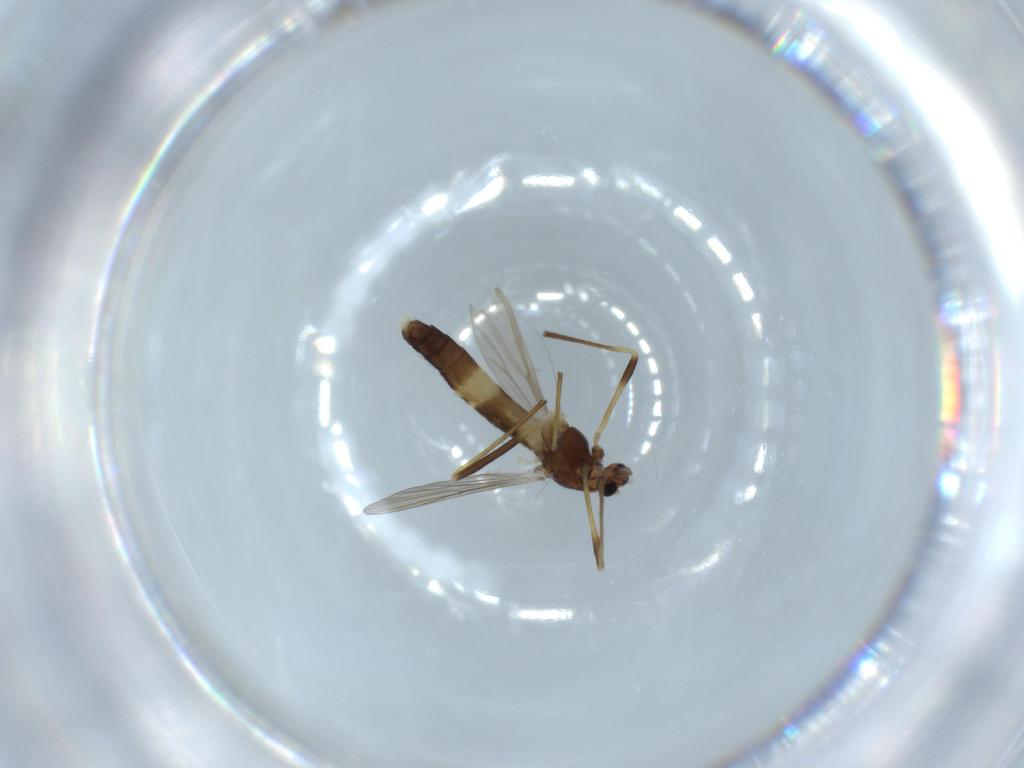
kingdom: Animalia
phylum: Arthropoda
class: Insecta
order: Diptera
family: Chironomidae
